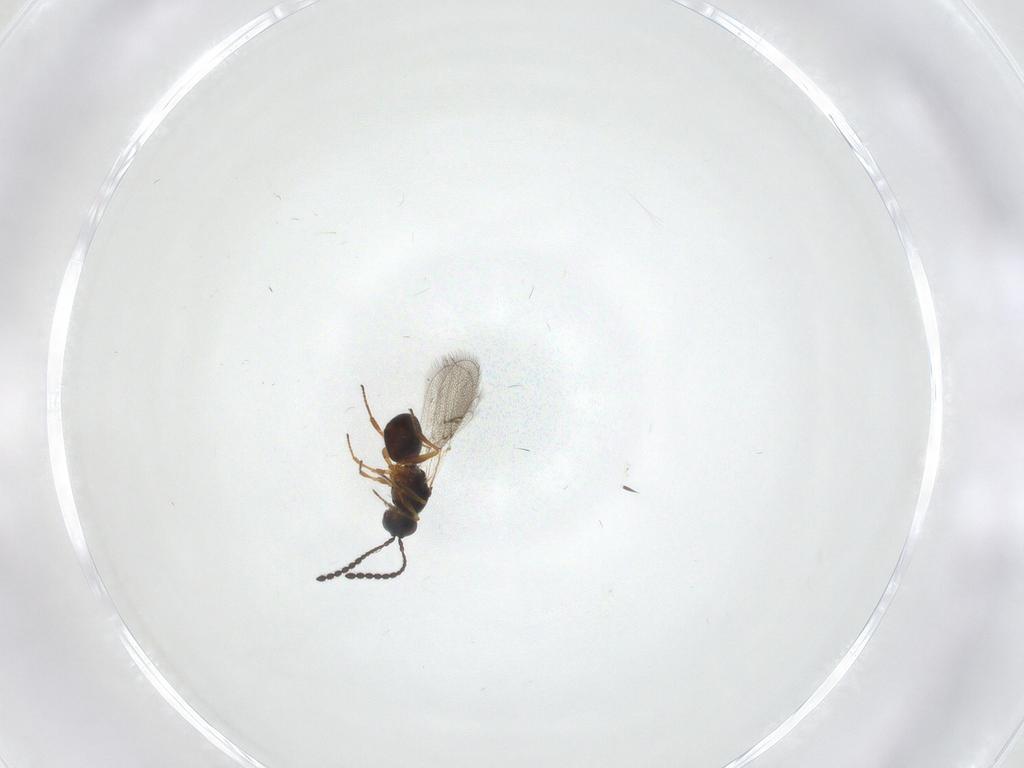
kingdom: Animalia
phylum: Arthropoda
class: Insecta
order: Hymenoptera
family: Figitidae
